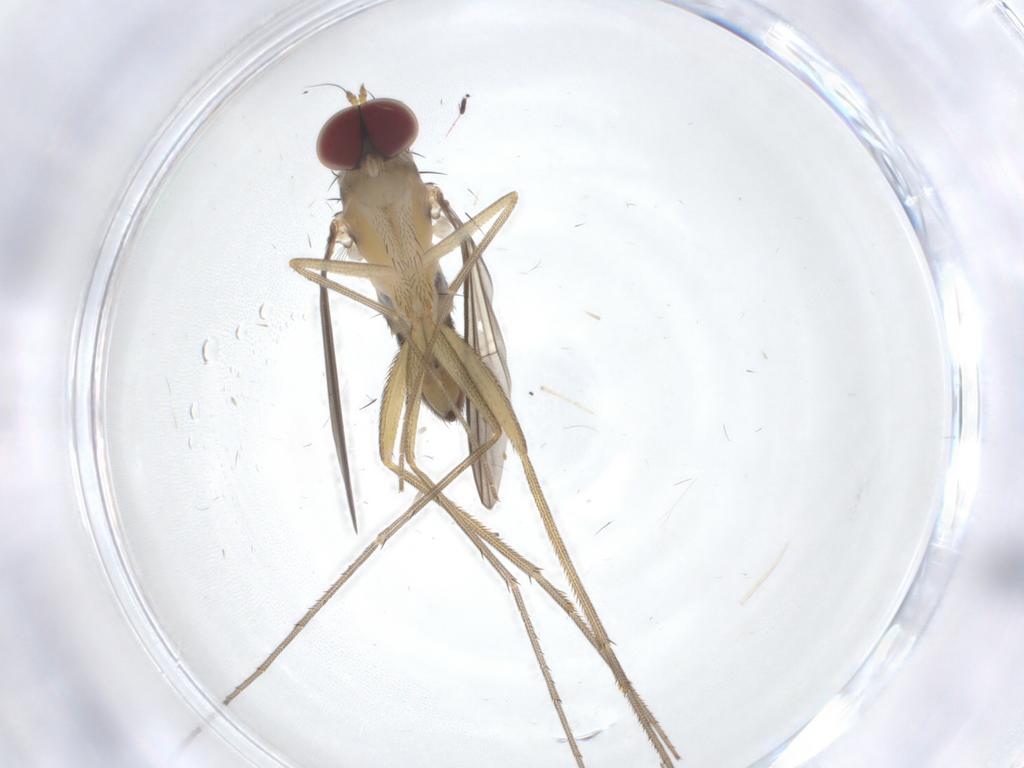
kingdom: Animalia
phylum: Arthropoda
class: Insecta
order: Diptera
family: Dolichopodidae
